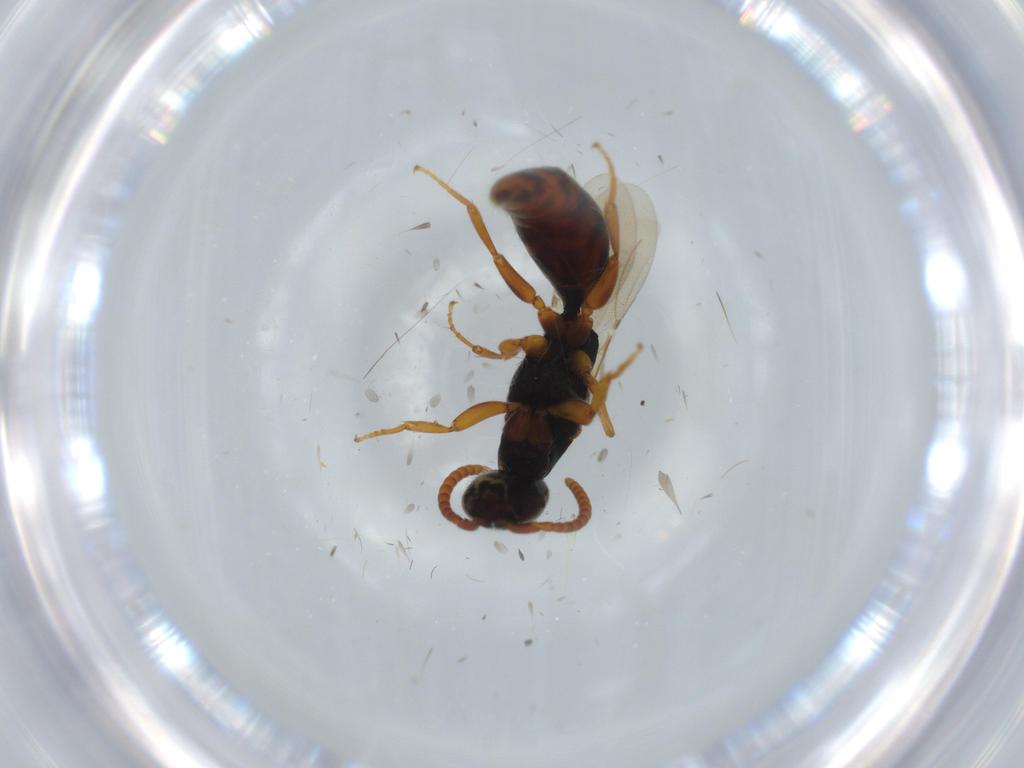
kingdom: Animalia
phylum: Arthropoda
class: Insecta
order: Hymenoptera
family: Bethylidae
